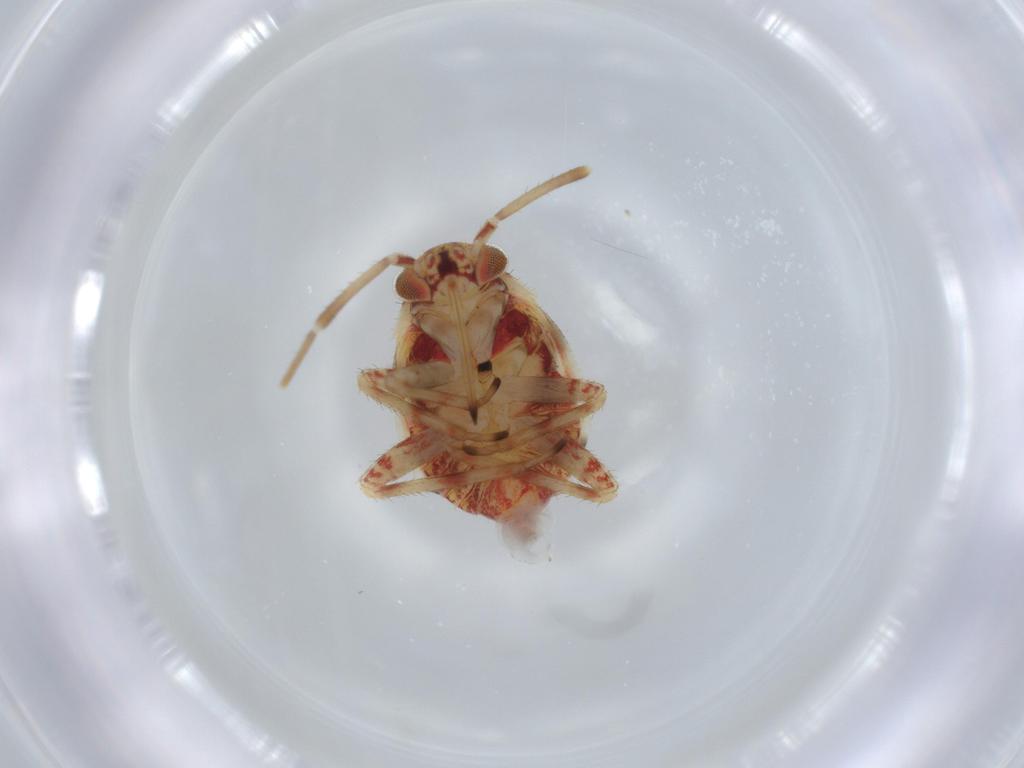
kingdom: Animalia
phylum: Arthropoda
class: Insecta
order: Hemiptera
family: Miridae
